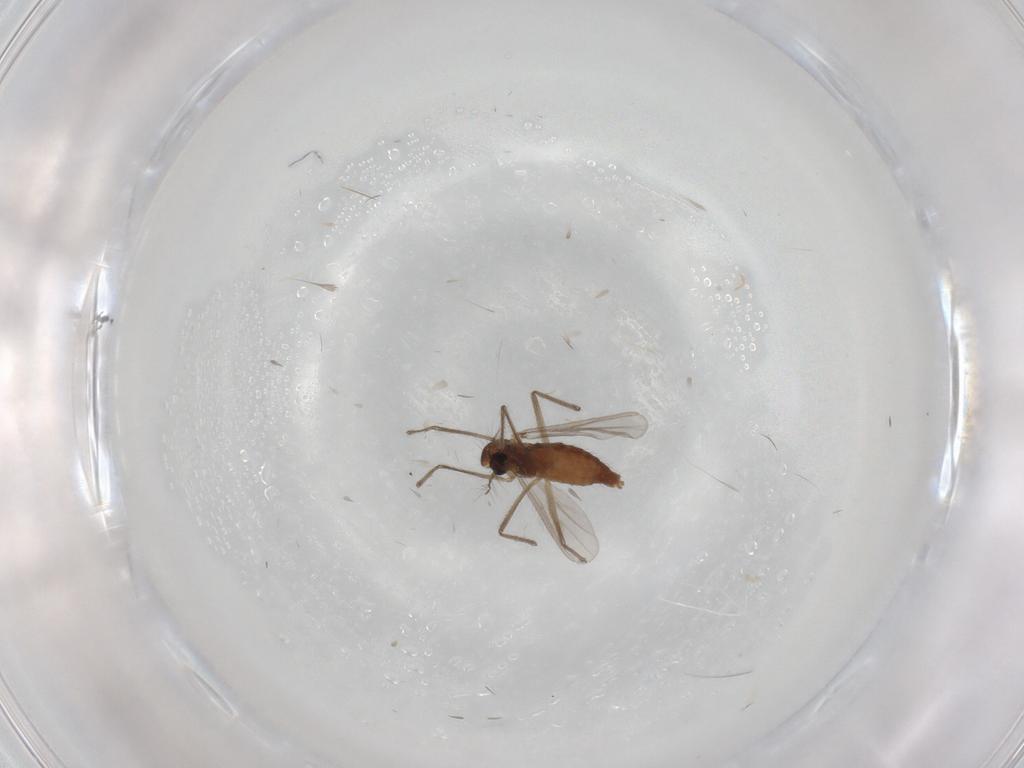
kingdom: Animalia
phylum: Arthropoda
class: Insecta
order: Diptera
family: Chironomidae
